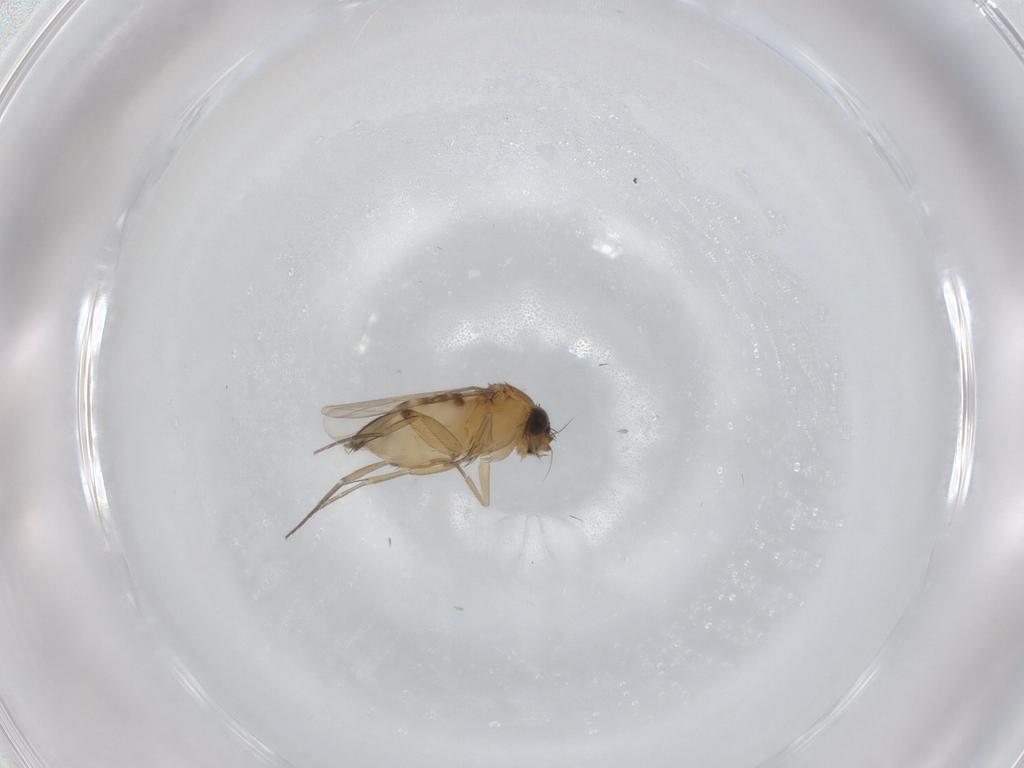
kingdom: Animalia
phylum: Arthropoda
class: Insecta
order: Diptera
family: Phoridae
